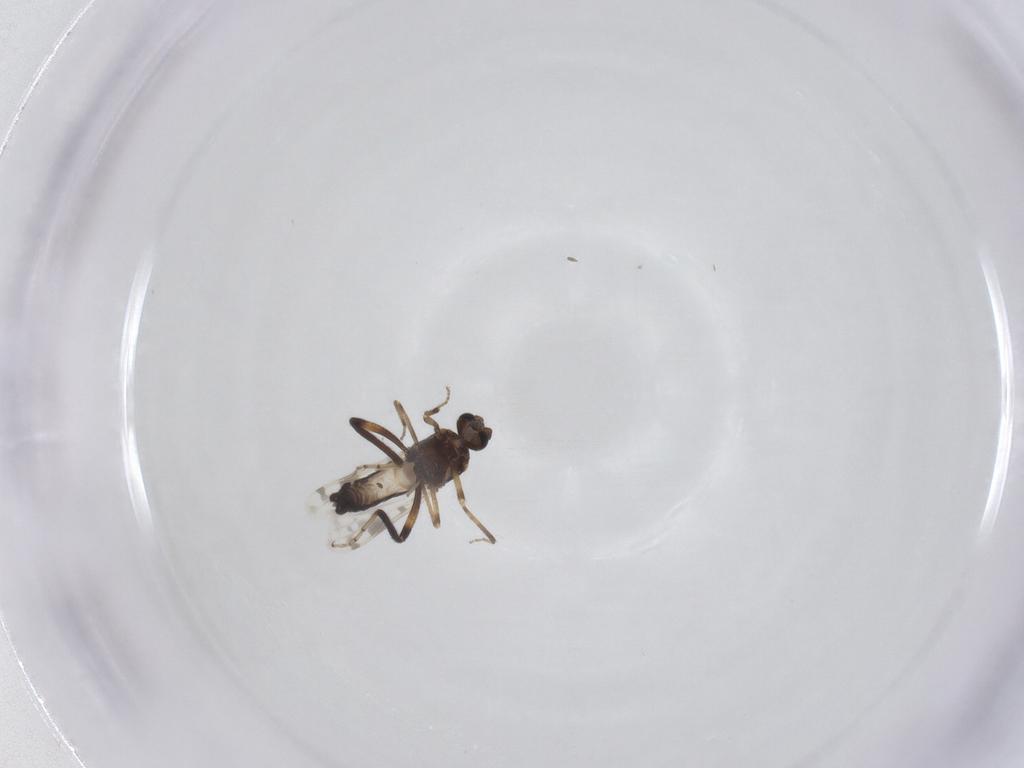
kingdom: Animalia
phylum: Arthropoda
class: Insecta
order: Diptera
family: Ceratopogonidae
